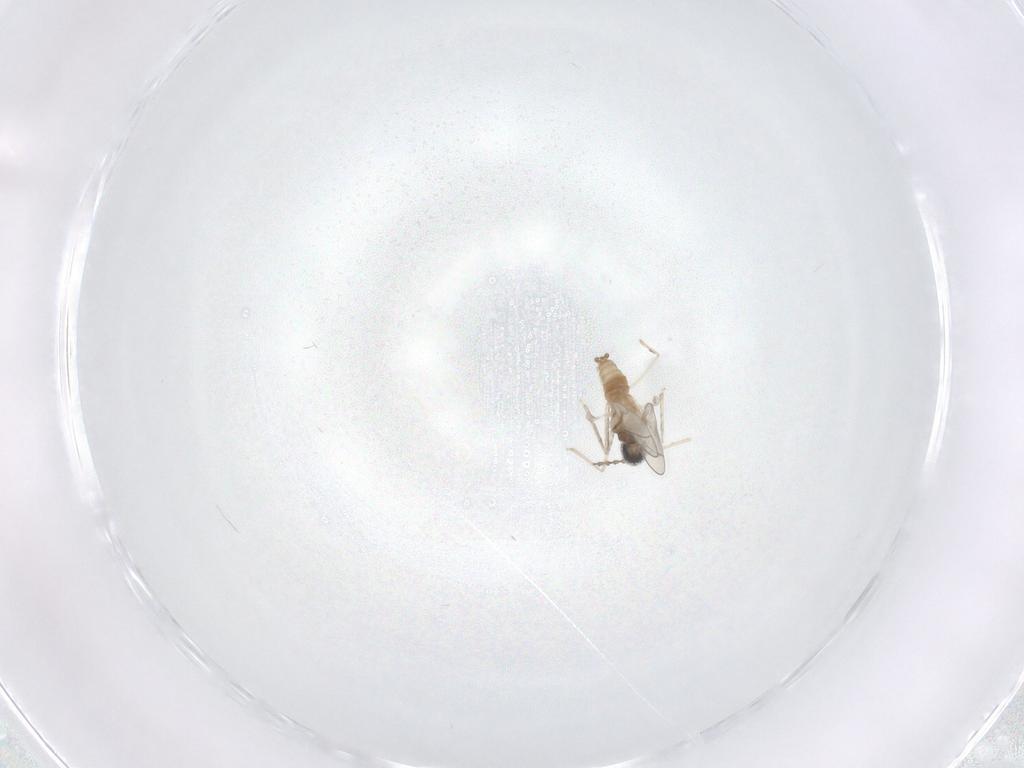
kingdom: Animalia
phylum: Arthropoda
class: Insecta
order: Diptera
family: Cecidomyiidae
